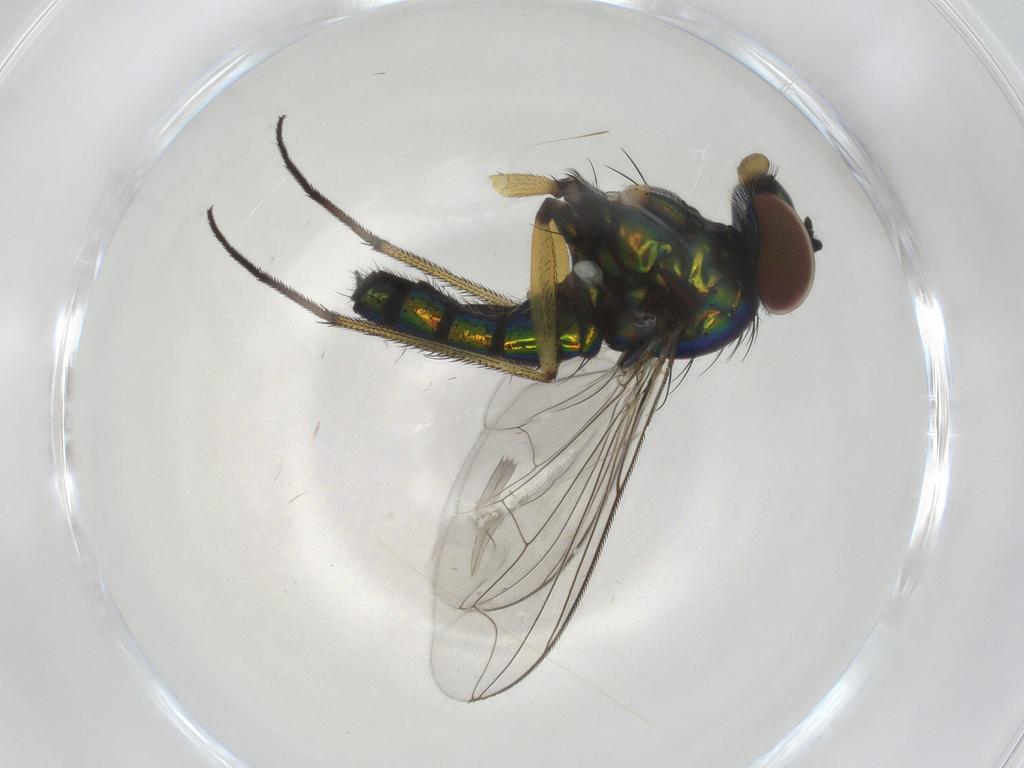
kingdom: Animalia
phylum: Arthropoda
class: Insecta
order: Diptera
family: Dolichopodidae
